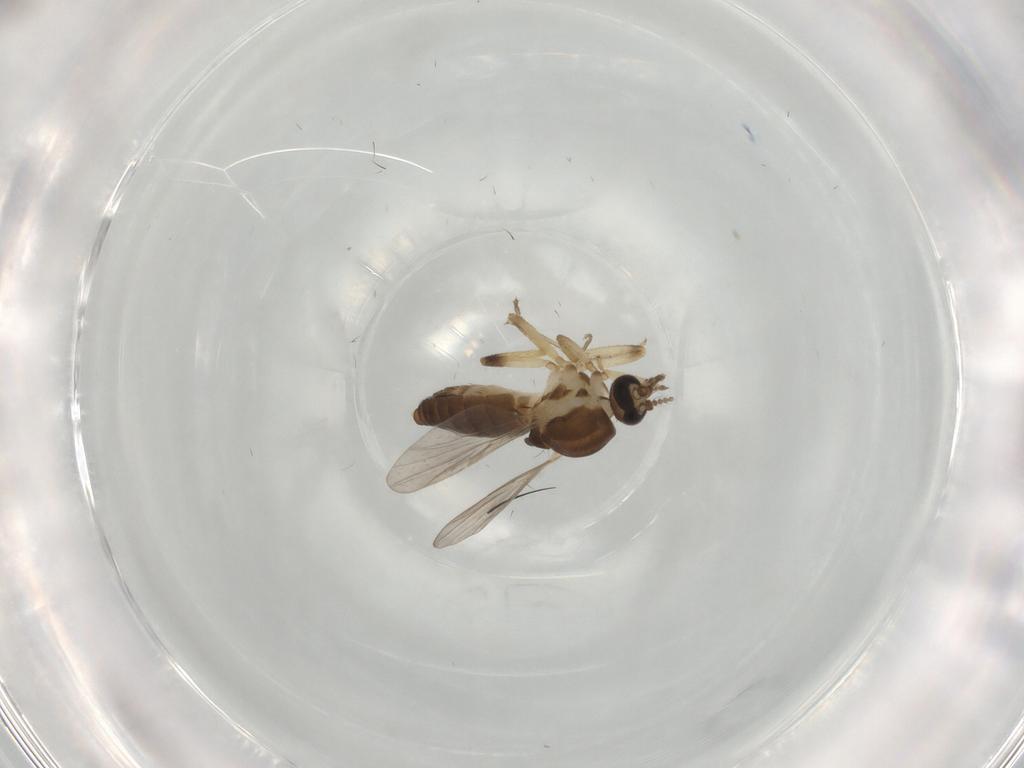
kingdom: Animalia
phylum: Arthropoda
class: Insecta
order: Diptera
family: Ceratopogonidae
